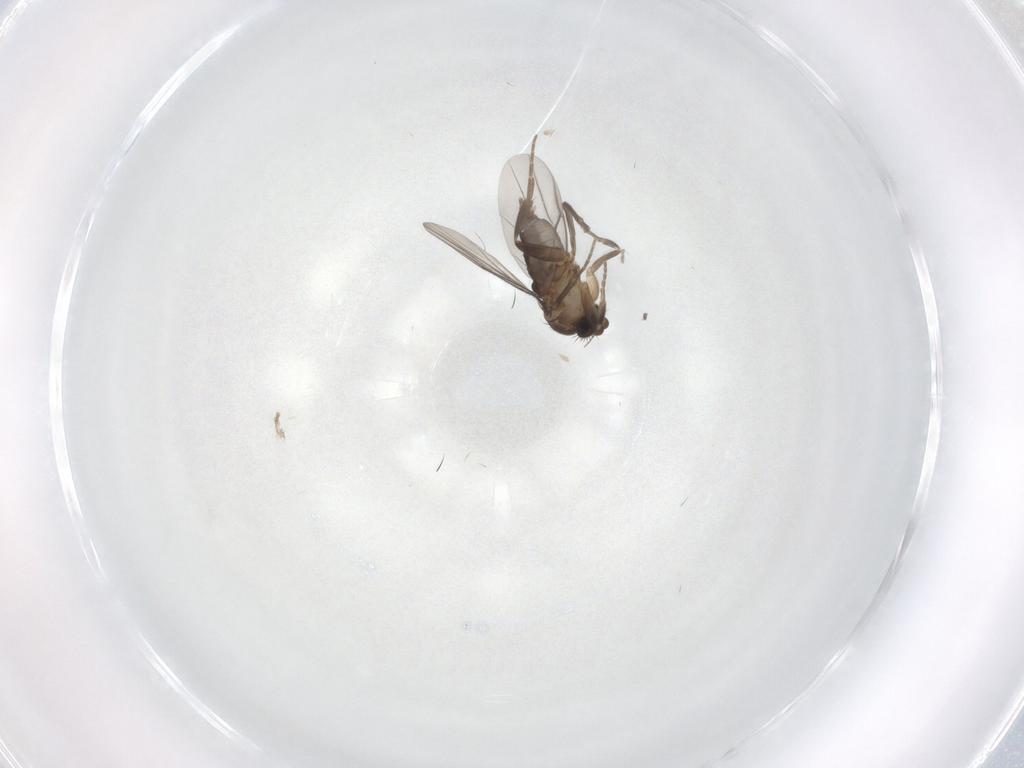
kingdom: Animalia
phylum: Arthropoda
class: Insecta
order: Diptera
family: Sciaridae
